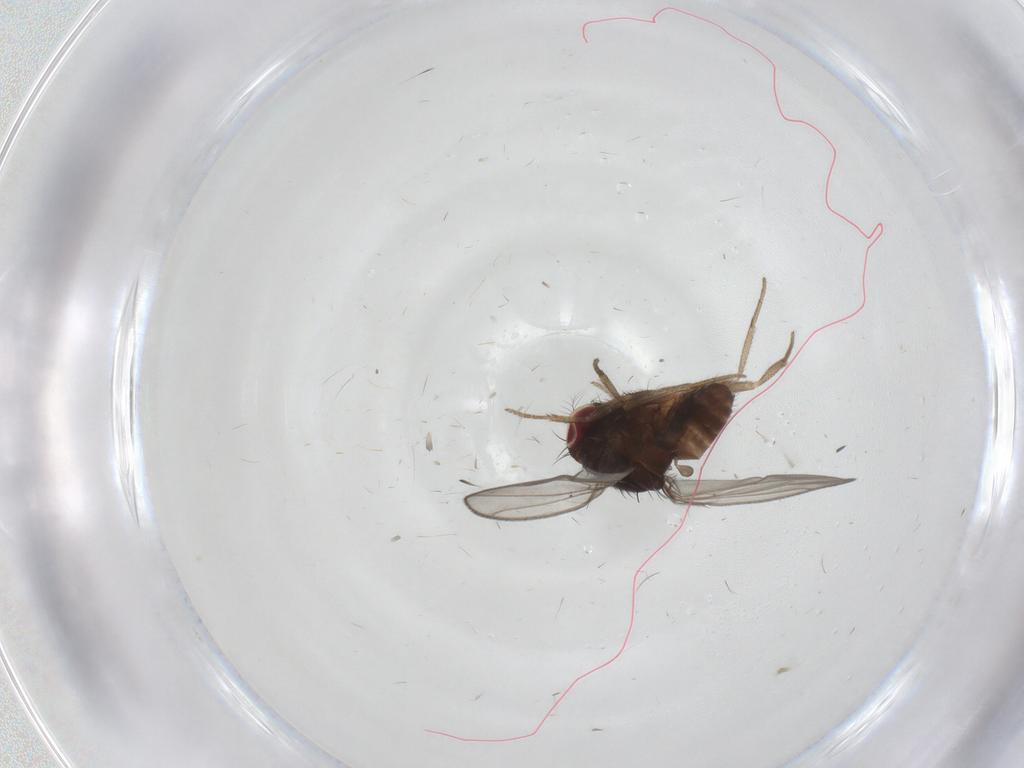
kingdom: Animalia
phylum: Arthropoda
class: Insecta
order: Diptera
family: Drosophilidae
